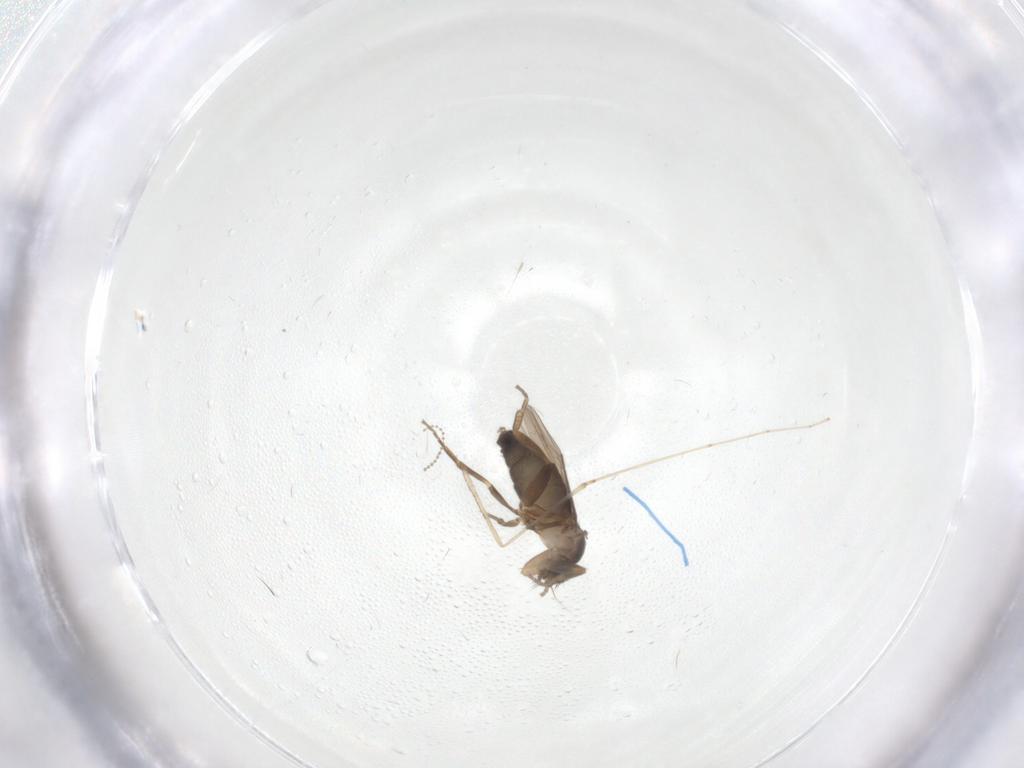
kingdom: Animalia
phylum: Arthropoda
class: Insecta
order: Diptera
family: Phoridae
